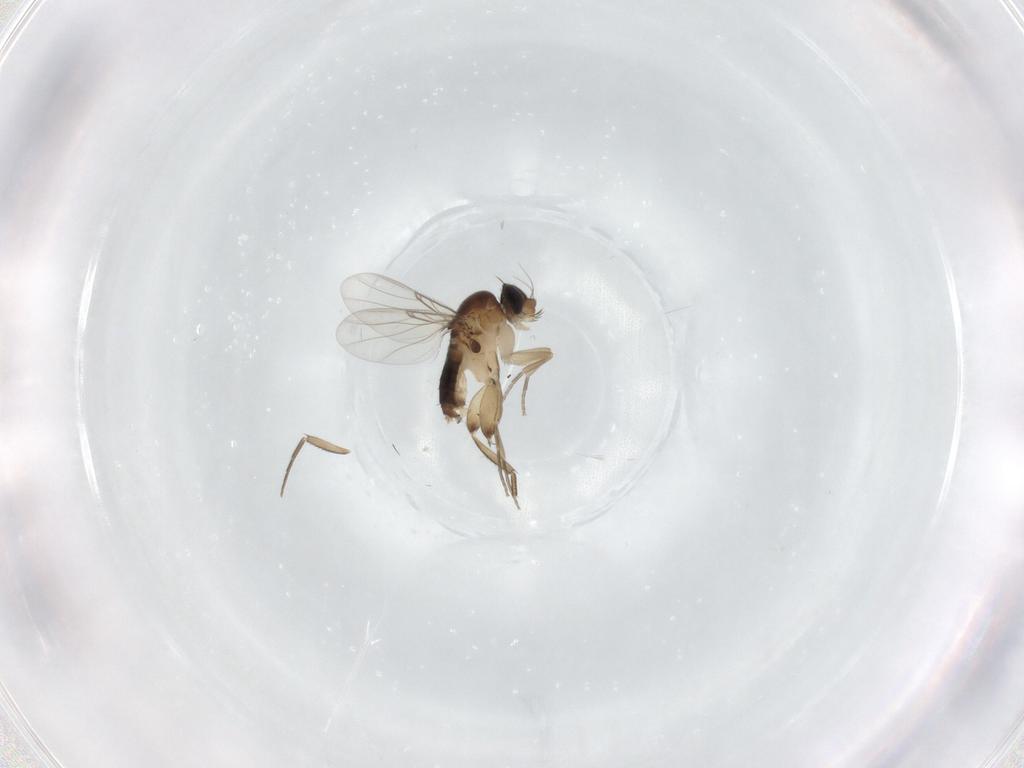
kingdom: Animalia
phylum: Arthropoda
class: Insecta
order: Diptera
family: Phoridae
